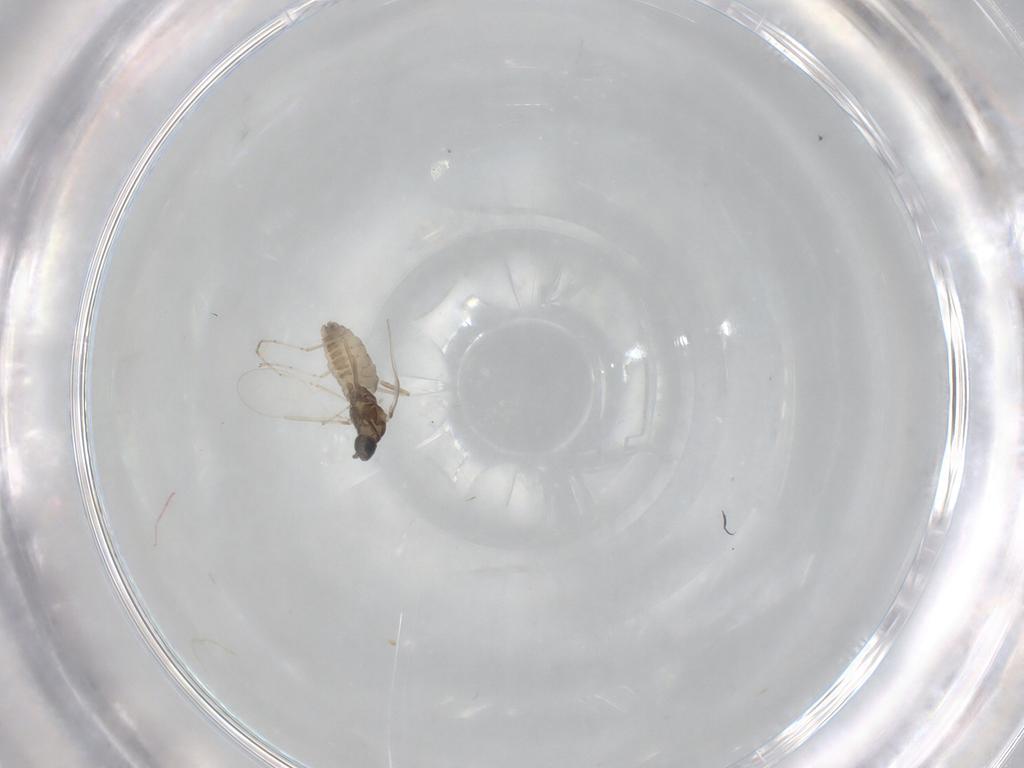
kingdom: Animalia
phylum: Arthropoda
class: Insecta
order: Diptera
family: Cecidomyiidae
